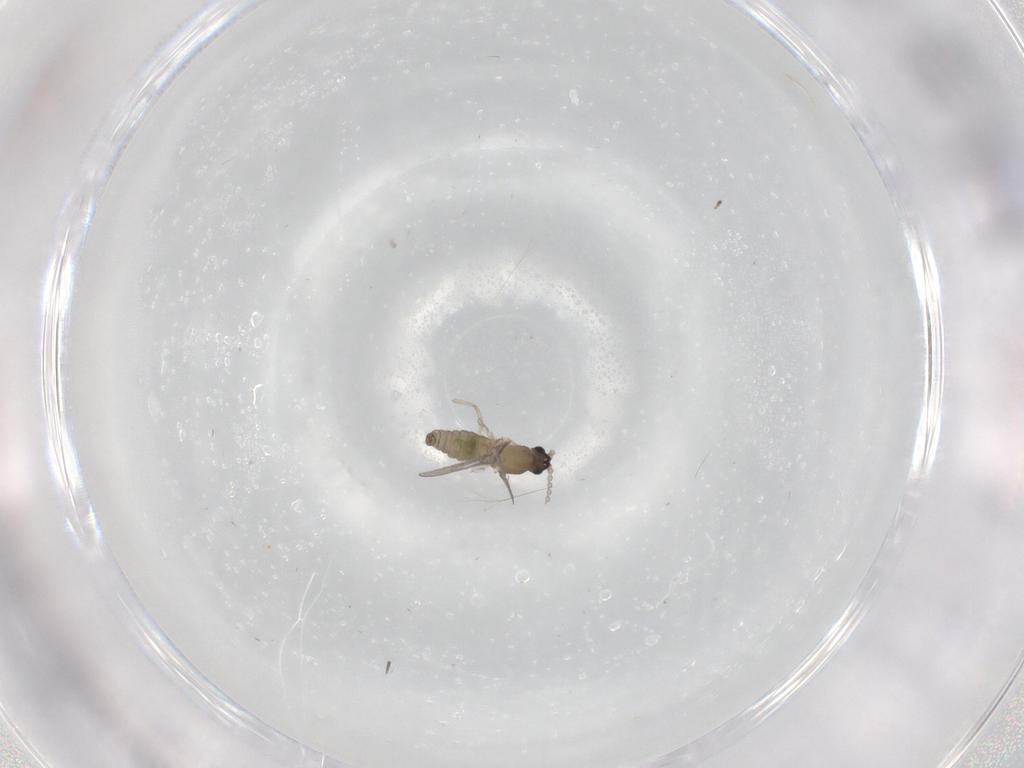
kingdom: Animalia
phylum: Arthropoda
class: Insecta
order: Diptera
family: Cecidomyiidae
